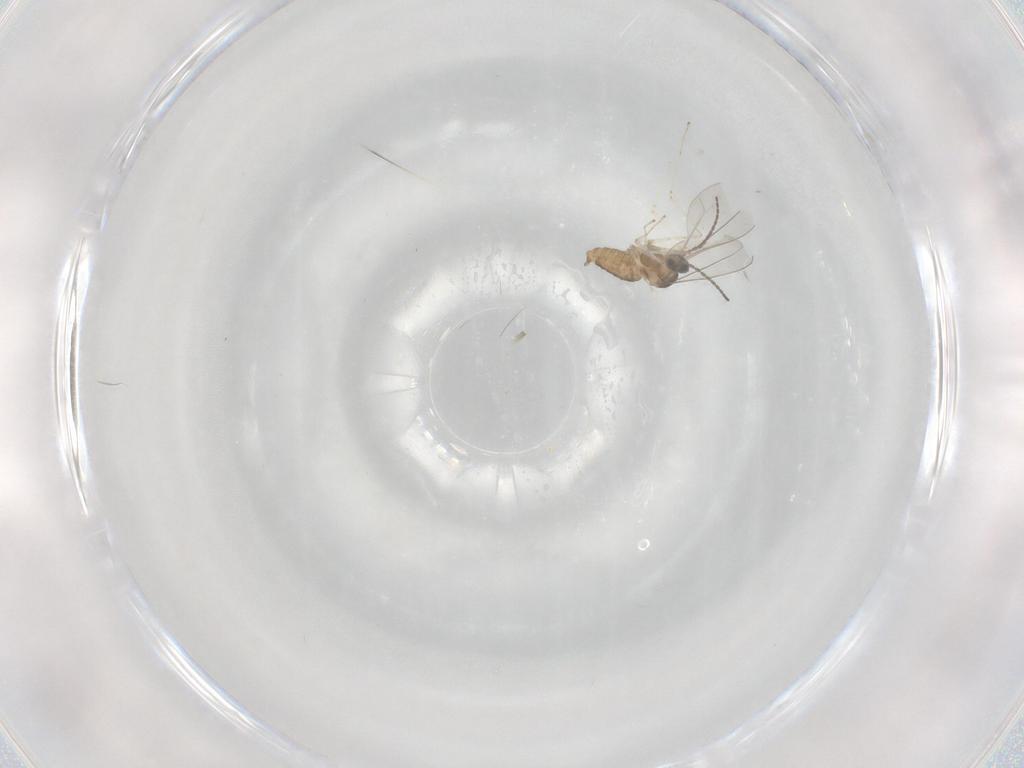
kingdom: Animalia
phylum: Arthropoda
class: Insecta
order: Diptera
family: Cecidomyiidae
